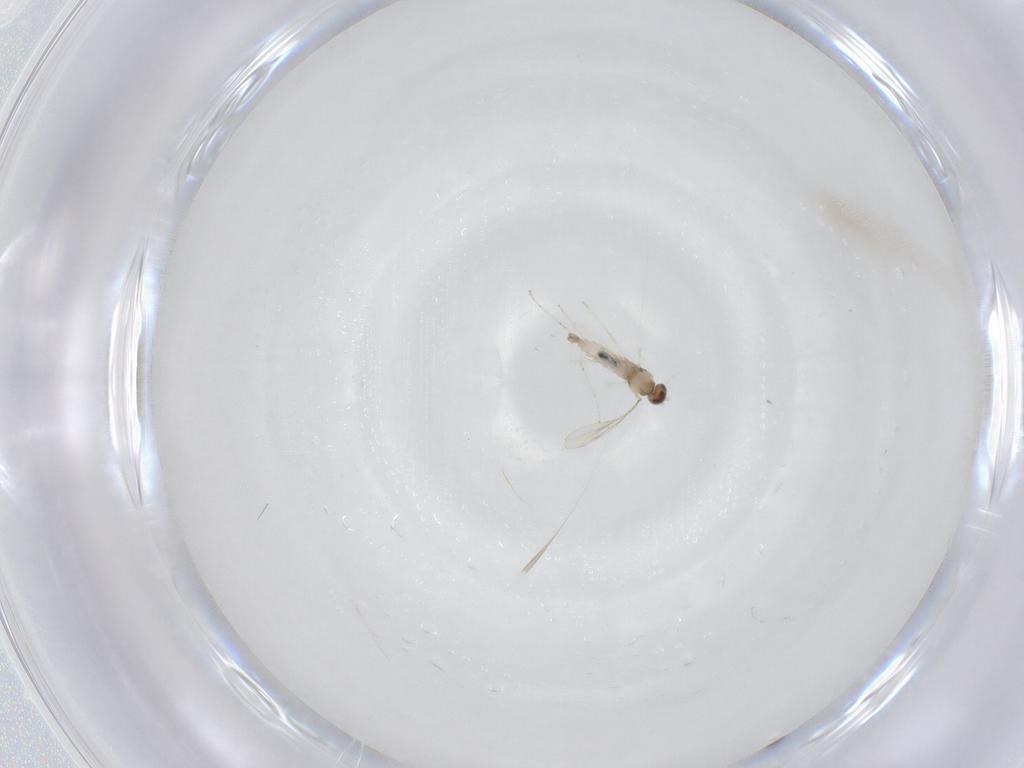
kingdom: Animalia
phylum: Arthropoda
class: Insecta
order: Diptera
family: Cecidomyiidae
